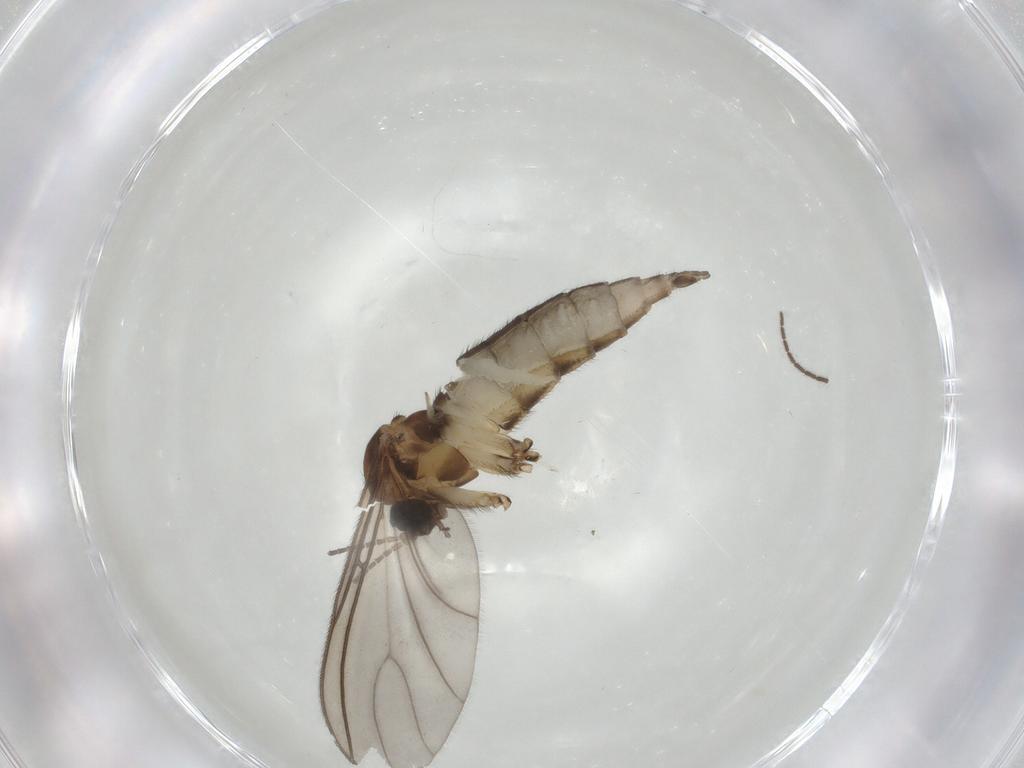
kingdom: Animalia
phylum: Arthropoda
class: Insecta
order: Diptera
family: Sciaridae
